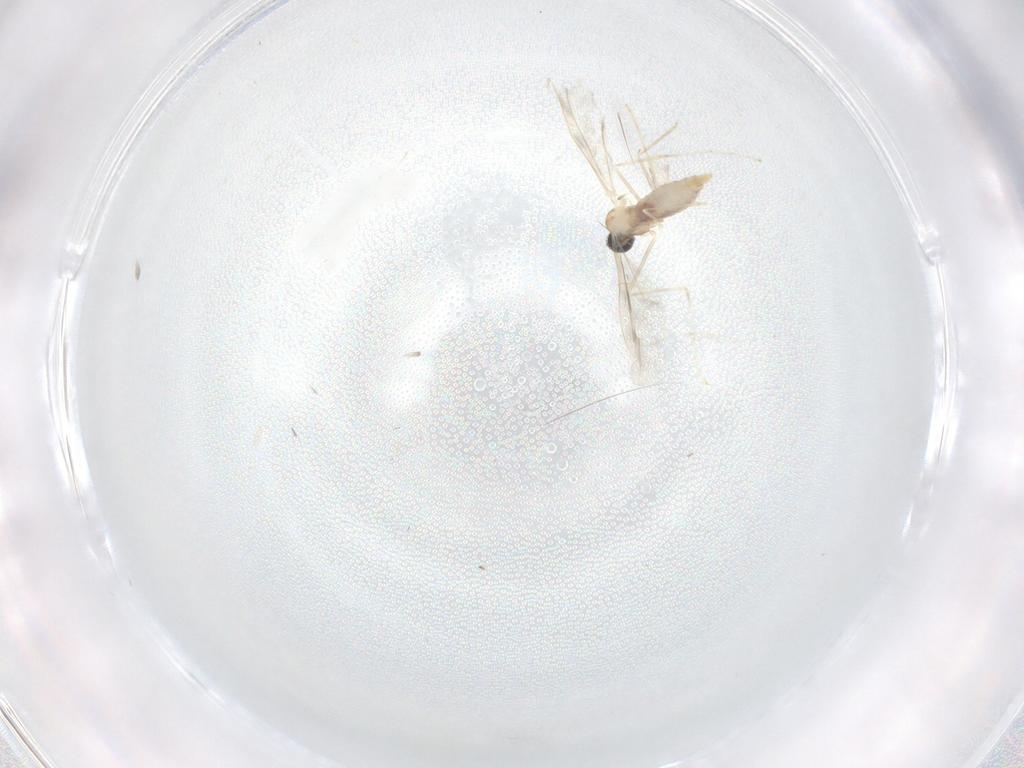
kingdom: Animalia
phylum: Arthropoda
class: Insecta
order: Diptera
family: Cecidomyiidae
